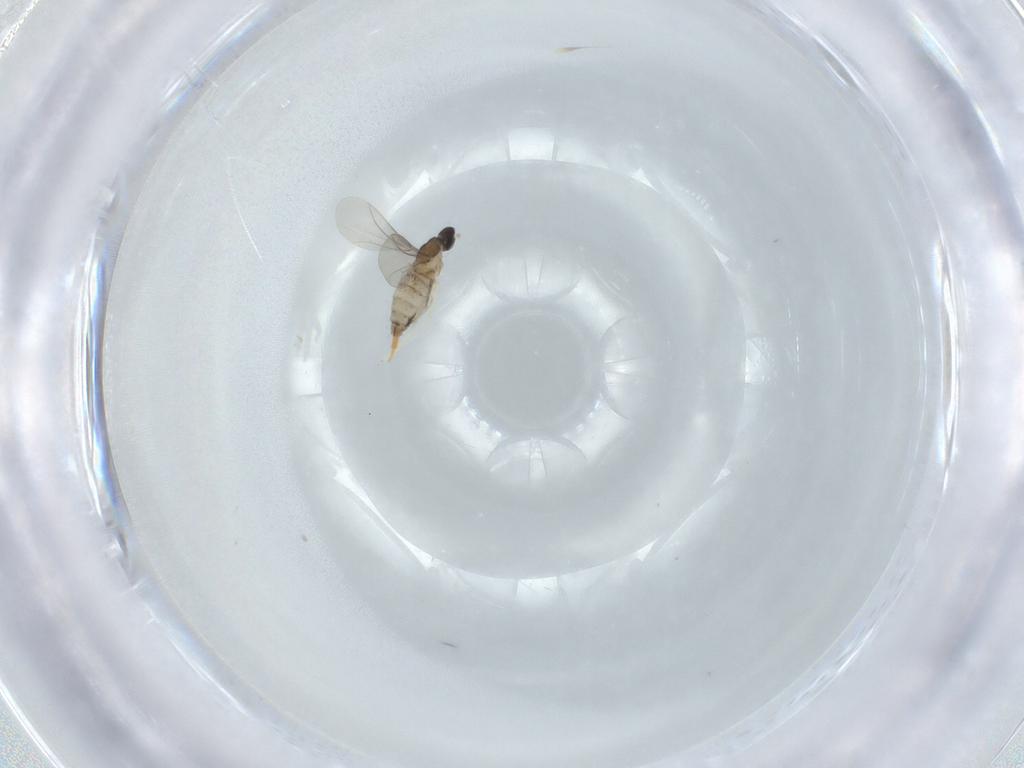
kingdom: Animalia
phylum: Arthropoda
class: Insecta
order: Diptera
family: Cecidomyiidae
